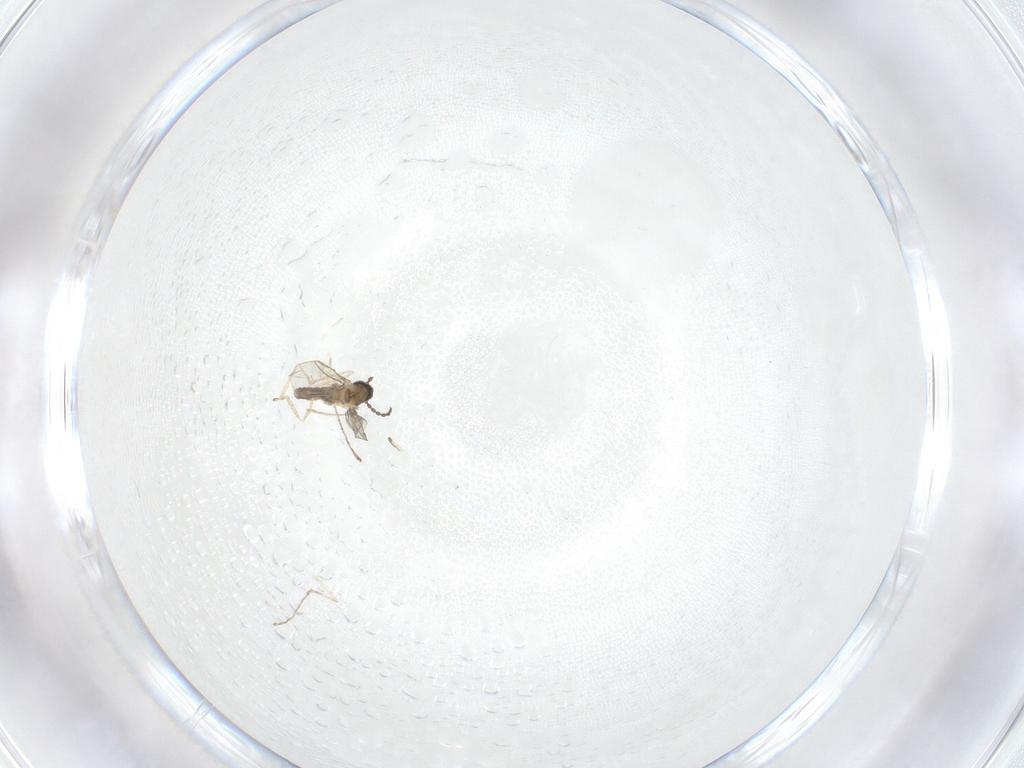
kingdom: Animalia
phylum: Arthropoda
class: Insecta
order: Diptera
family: Cecidomyiidae
